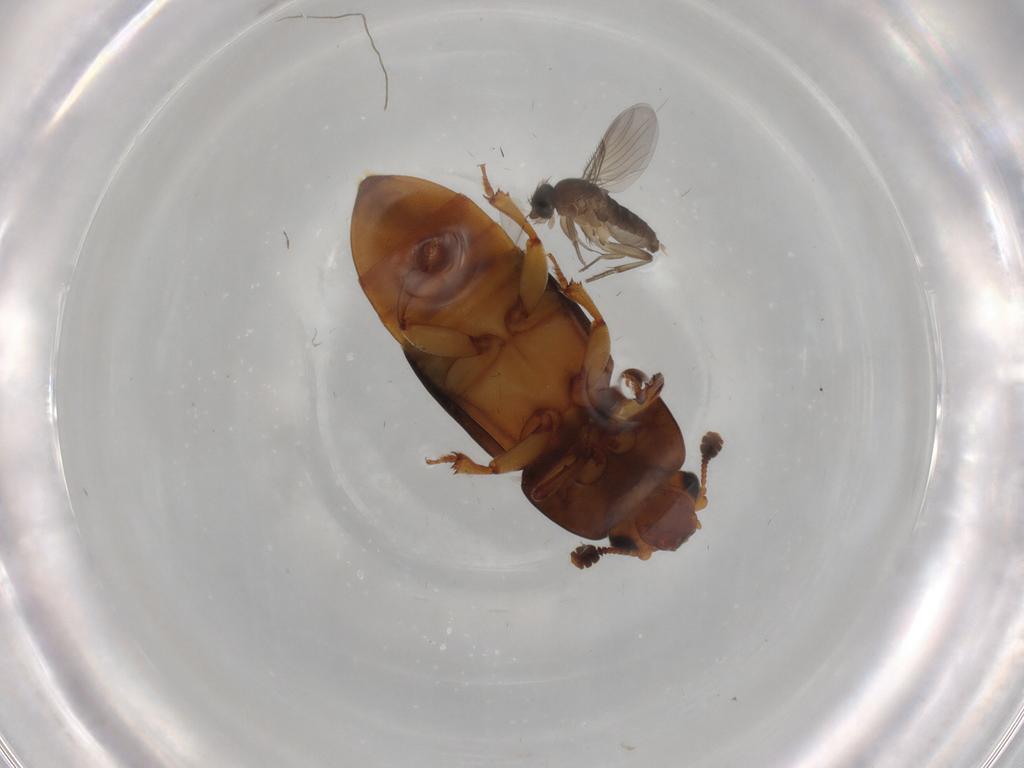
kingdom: Animalia
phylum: Arthropoda
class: Insecta
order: Diptera
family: Phoridae
